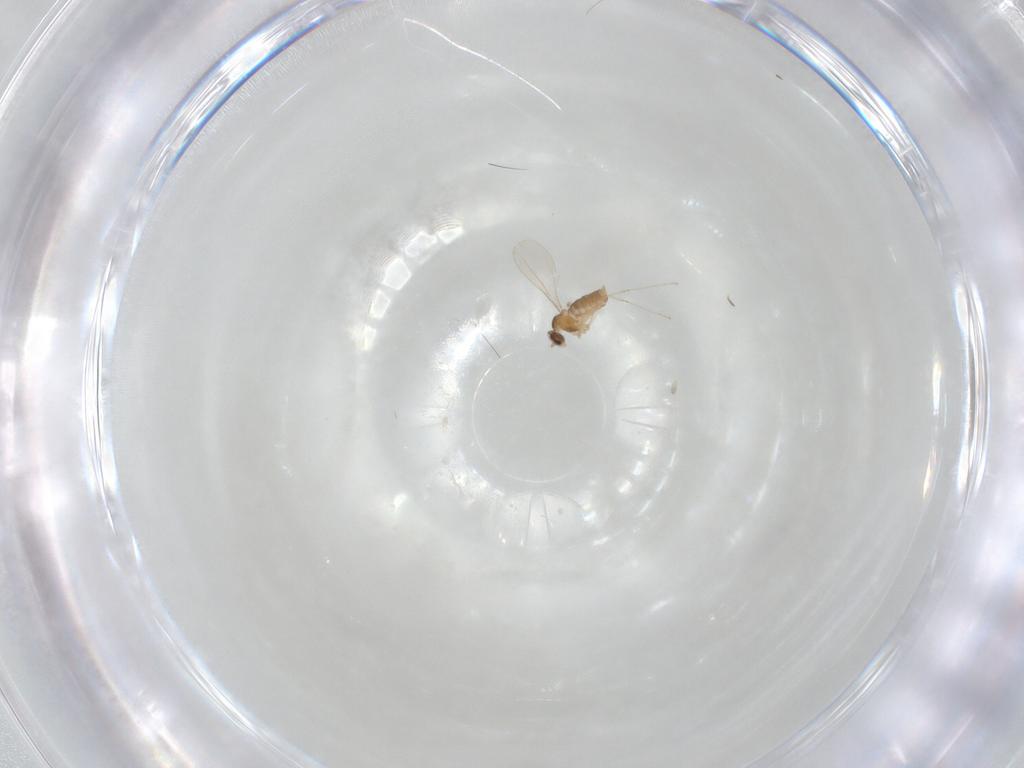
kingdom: Animalia
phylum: Arthropoda
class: Insecta
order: Diptera
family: Cecidomyiidae
